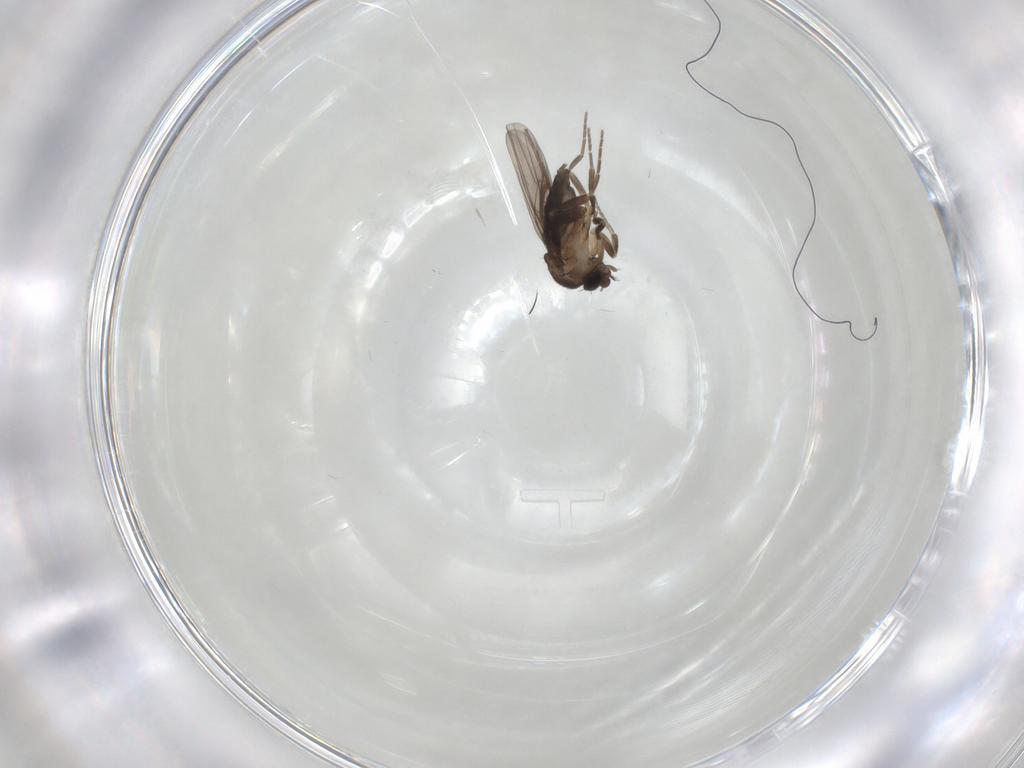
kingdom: Animalia
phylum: Arthropoda
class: Insecta
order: Diptera
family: Phoridae
